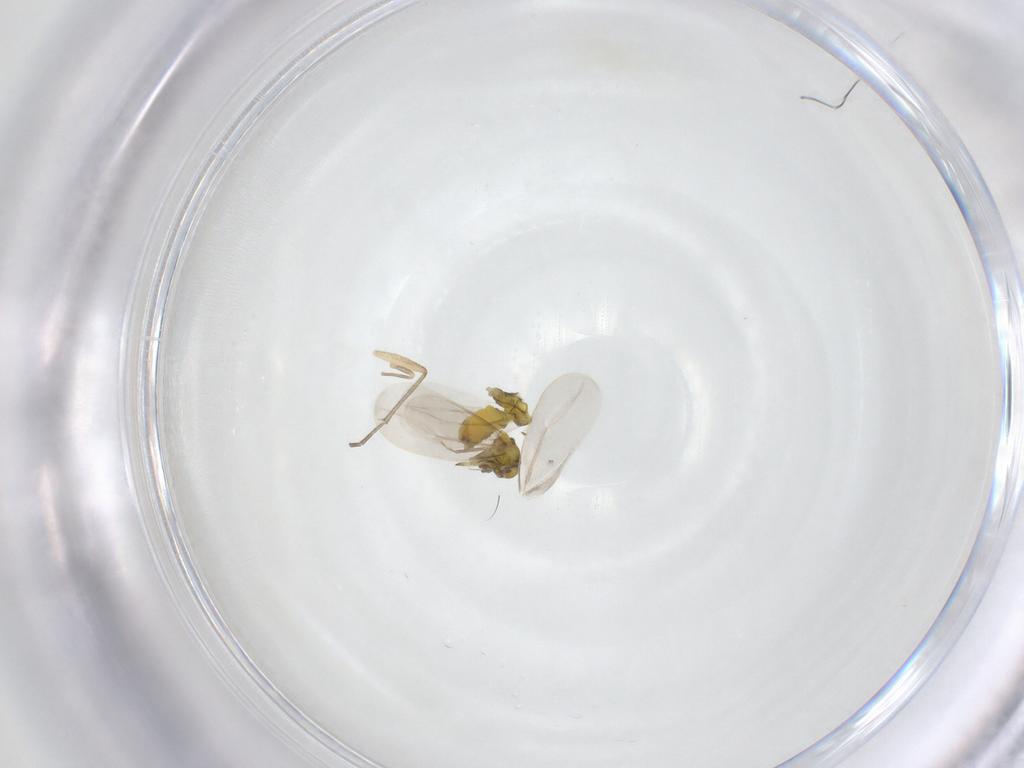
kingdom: Animalia
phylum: Arthropoda
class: Insecta
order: Hemiptera
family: Aleyrodidae
